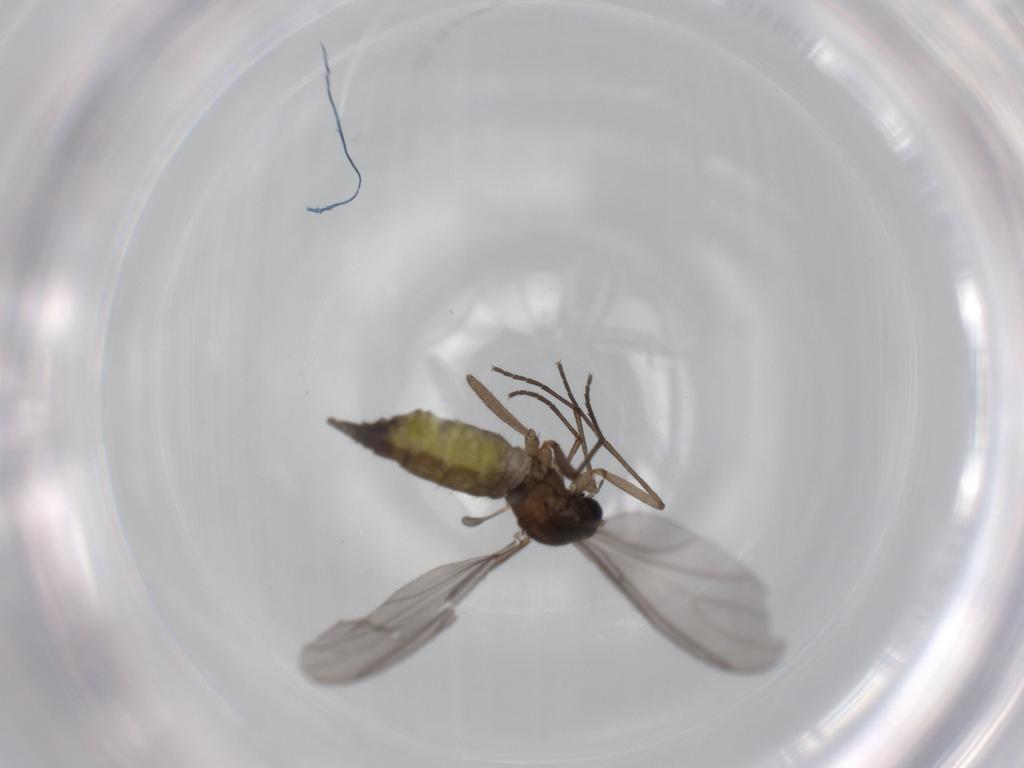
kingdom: Animalia
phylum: Arthropoda
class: Insecta
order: Diptera
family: Sciaridae
